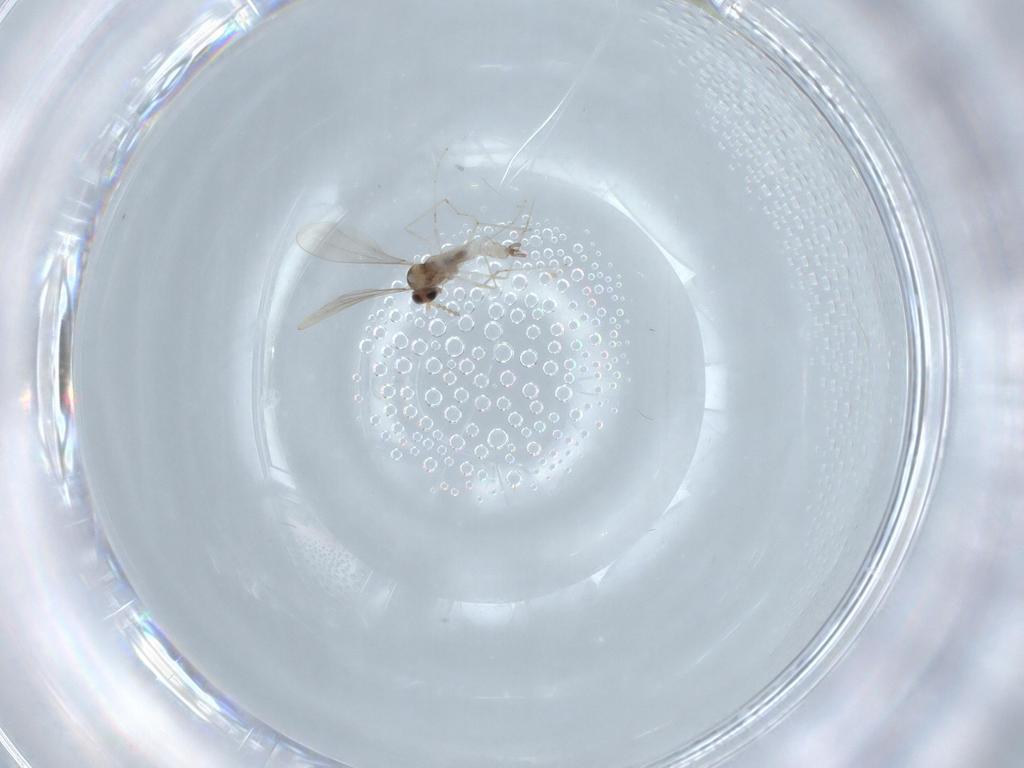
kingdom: Animalia
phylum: Arthropoda
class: Insecta
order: Diptera
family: Cecidomyiidae
